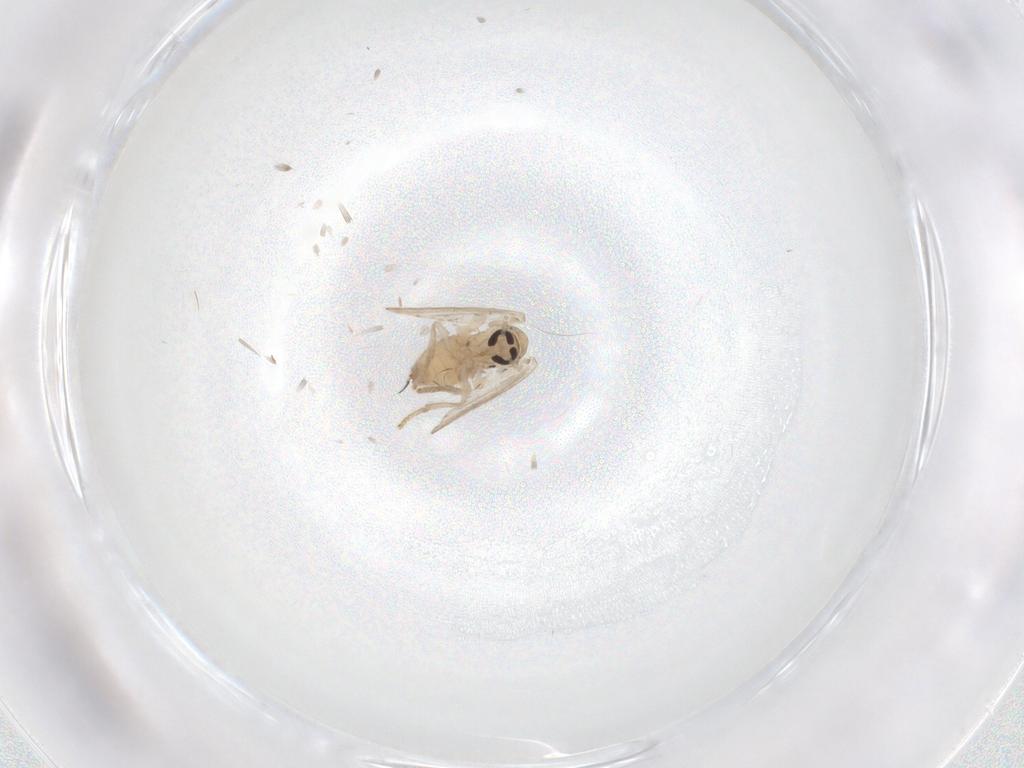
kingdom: Animalia
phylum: Arthropoda
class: Insecta
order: Diptera
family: Psychodidae
